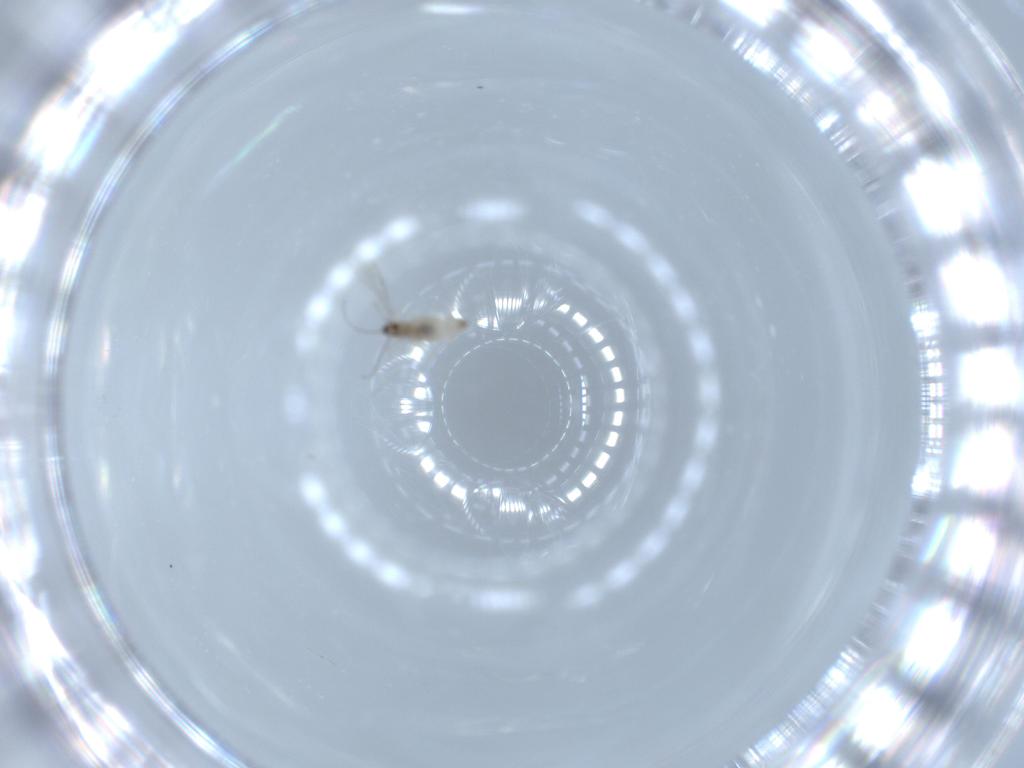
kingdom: Animalia
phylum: Arthropoda
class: Insecta
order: Diptera
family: Cecidomyiidae
